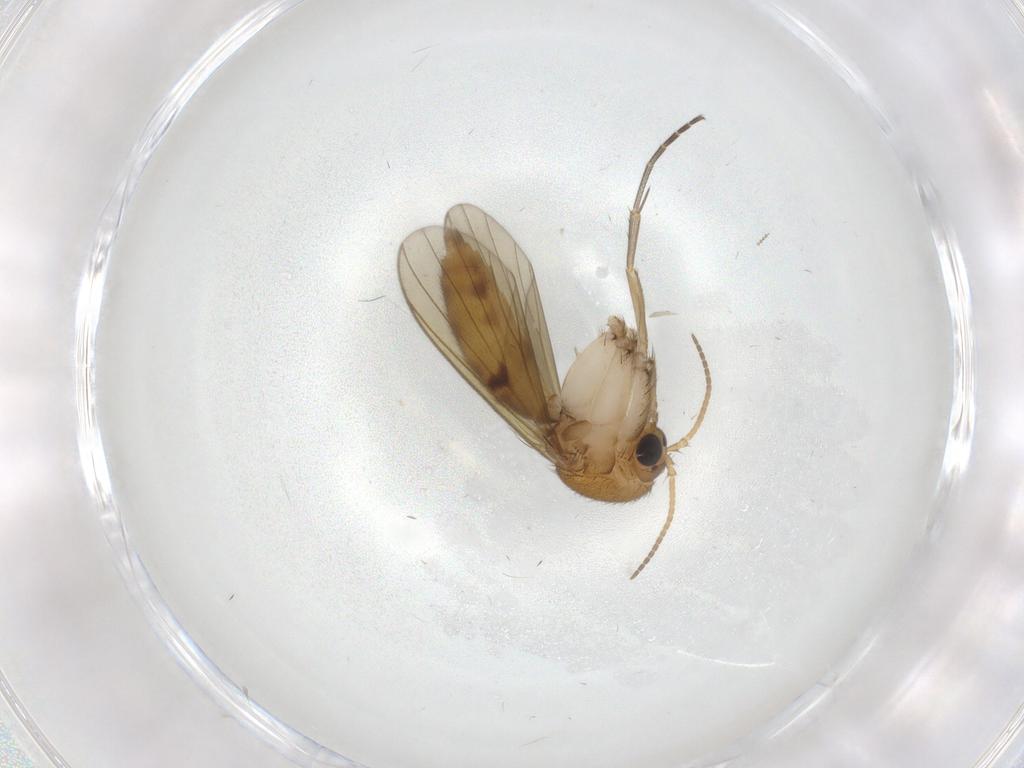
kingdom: Animalia
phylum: Arthropoda
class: Insecta
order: Diptera
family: Mycetophilidae
